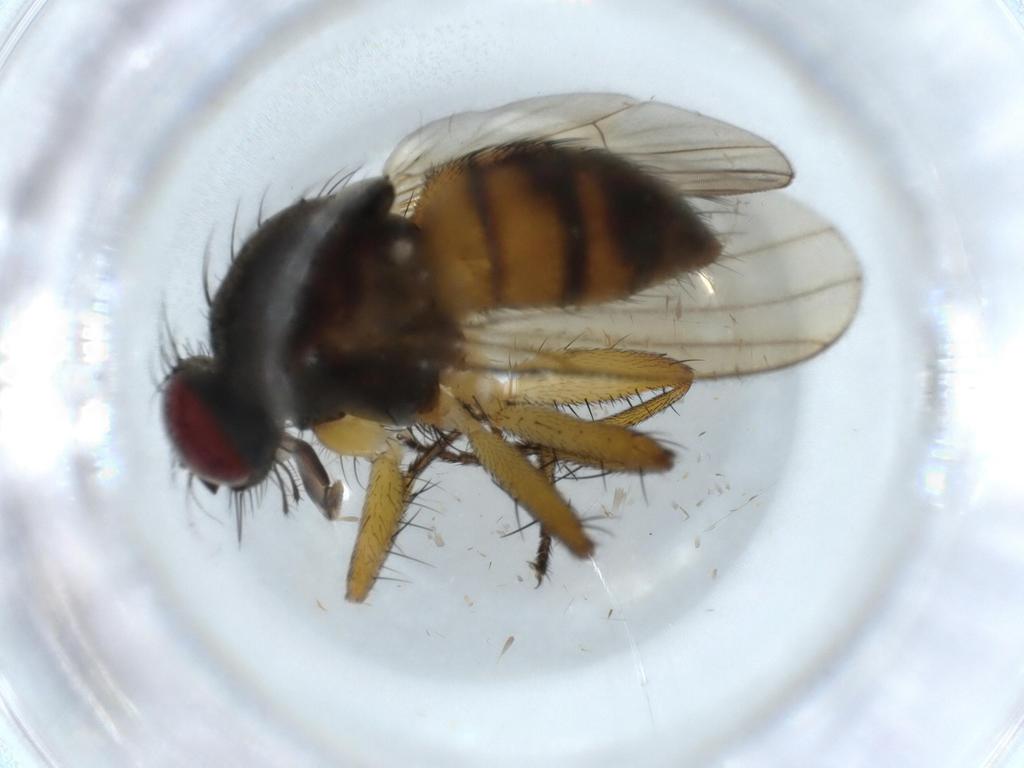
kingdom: Animalia
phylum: Arthropoda
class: Insecta
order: Diptera
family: Muscidae
